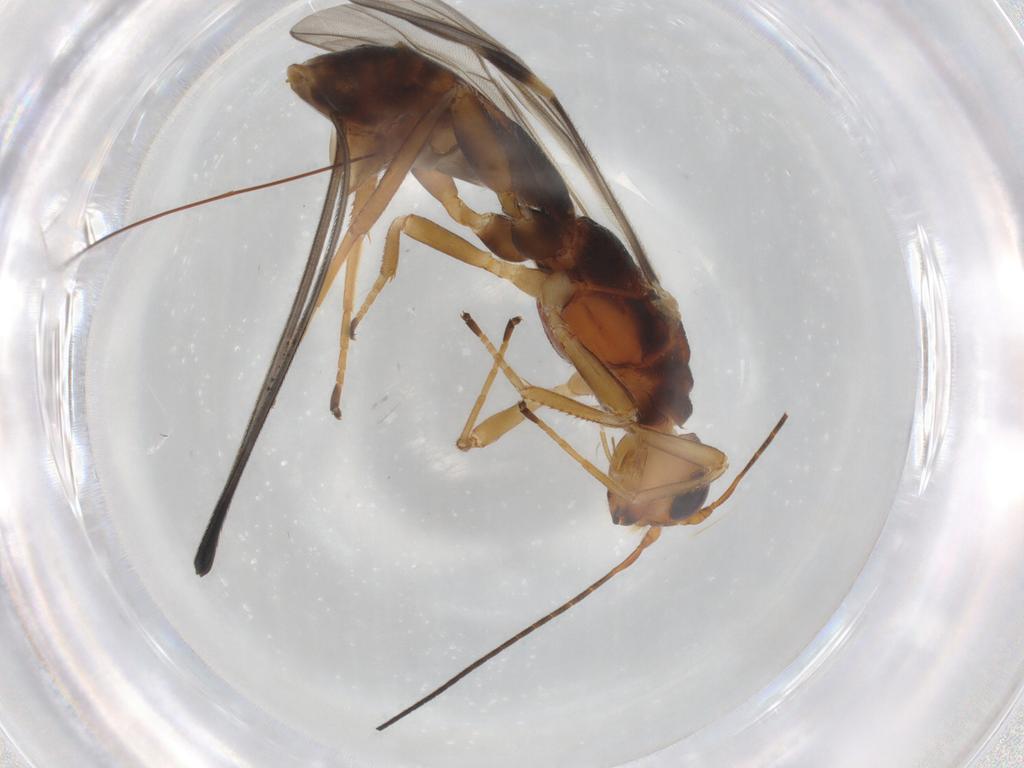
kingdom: Animalia
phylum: Arthropoda
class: Insecta
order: Hymenoptera
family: Braconidae
